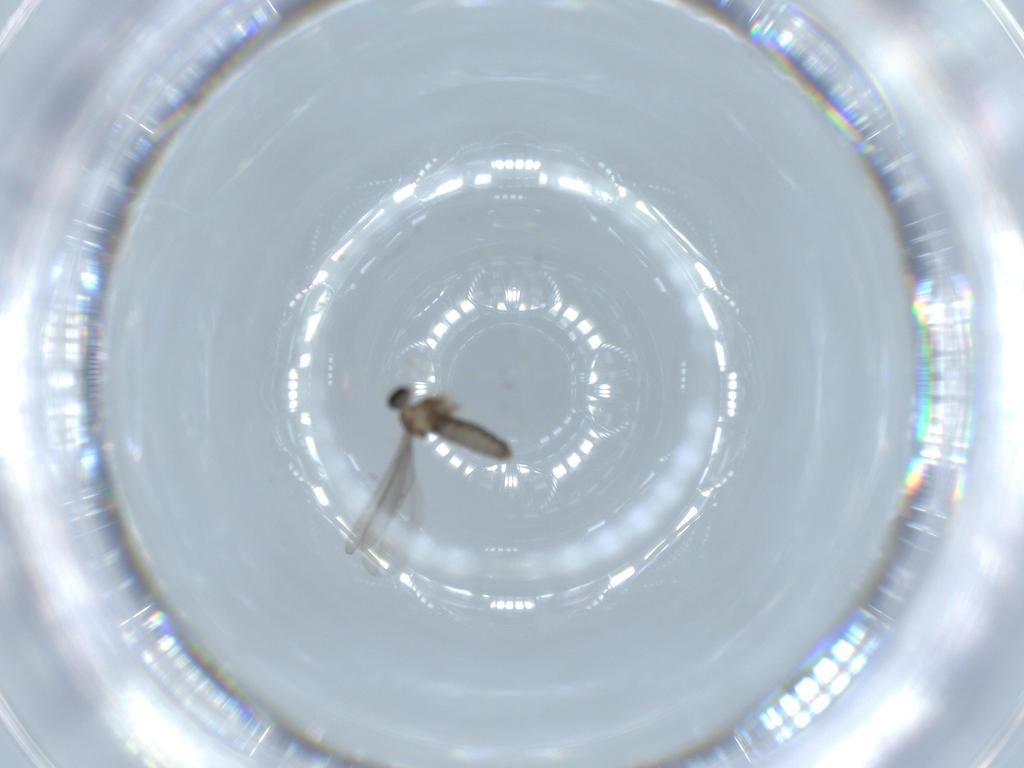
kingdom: Animalia
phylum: Arthropoda
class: Insecta
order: Diptera
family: Cecidomyiidae
